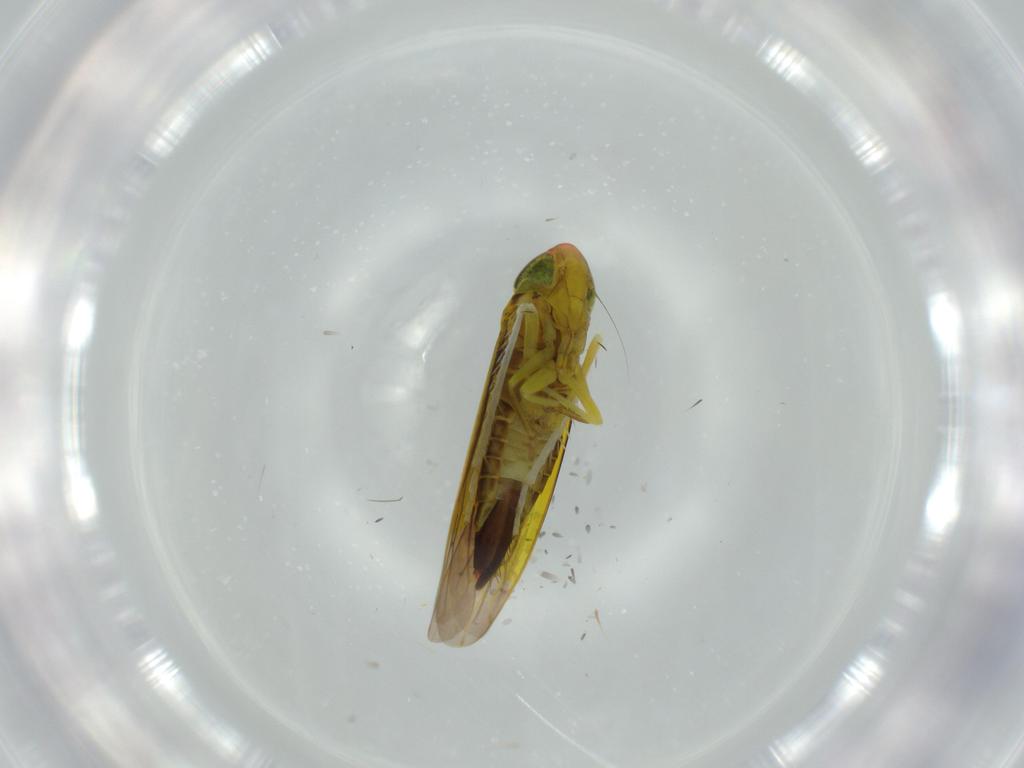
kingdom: Animalia
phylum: Arthropoda
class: Insecta
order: Hemiptera
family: Cicadellidae
